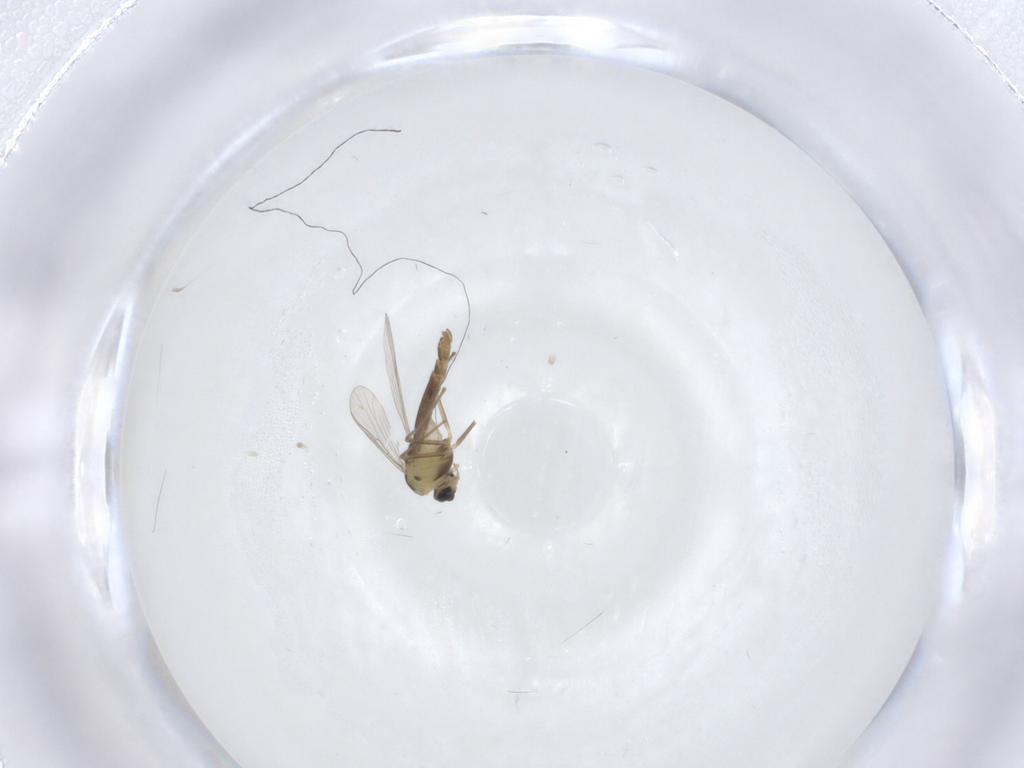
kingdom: Animalia
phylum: Arthropoda
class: Insecta
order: Diptera
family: Chironomidae
